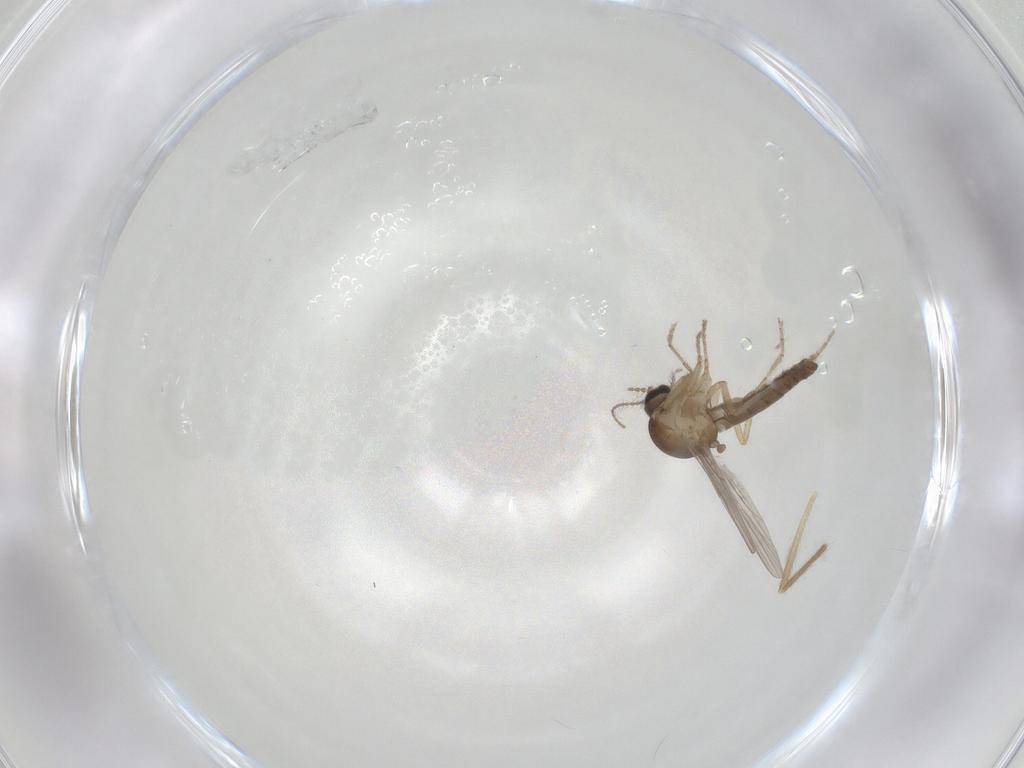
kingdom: Animalia
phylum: Arthropoda
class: Insecta
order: Diptera
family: Ceratopogonidae
